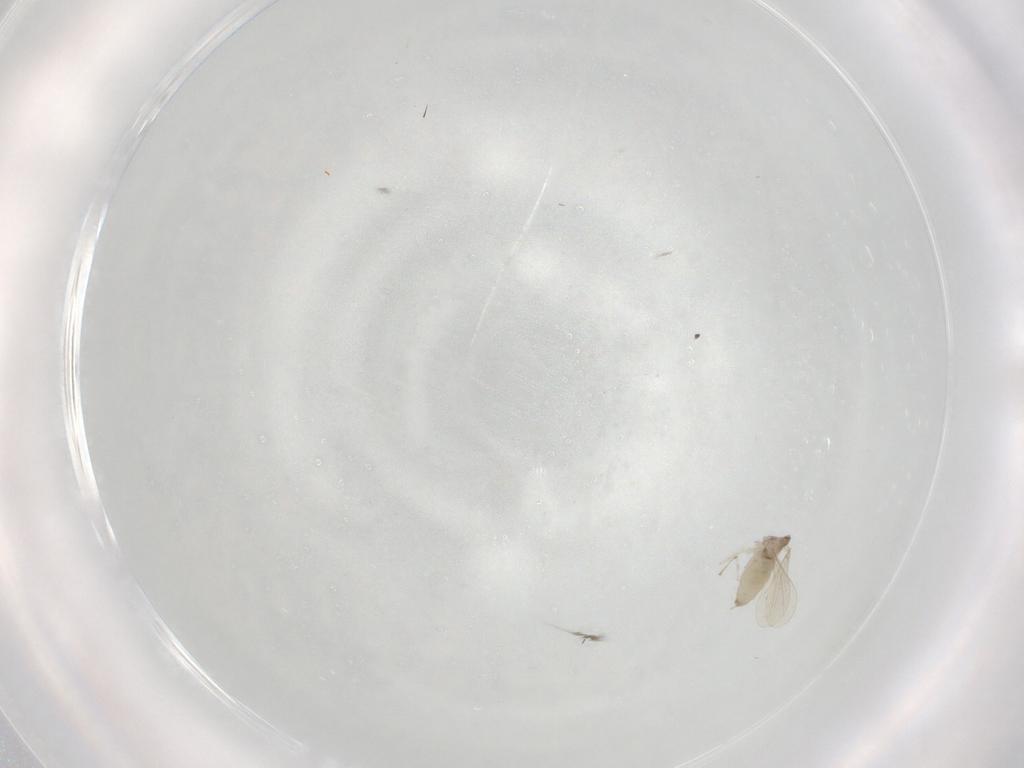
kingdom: Animalia
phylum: Arthropoda
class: Insecta
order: Diptera
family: Cecidomyiidae
